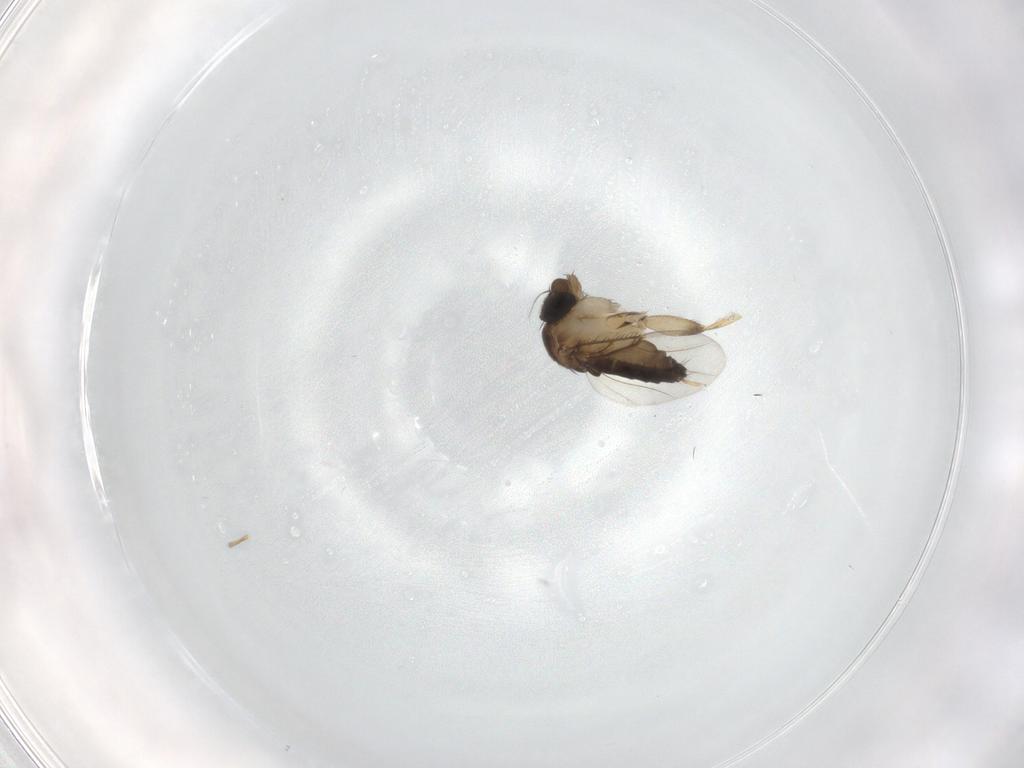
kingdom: Animalia
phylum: Arthropoda
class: Insecta
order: Diptera
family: Phoridae
